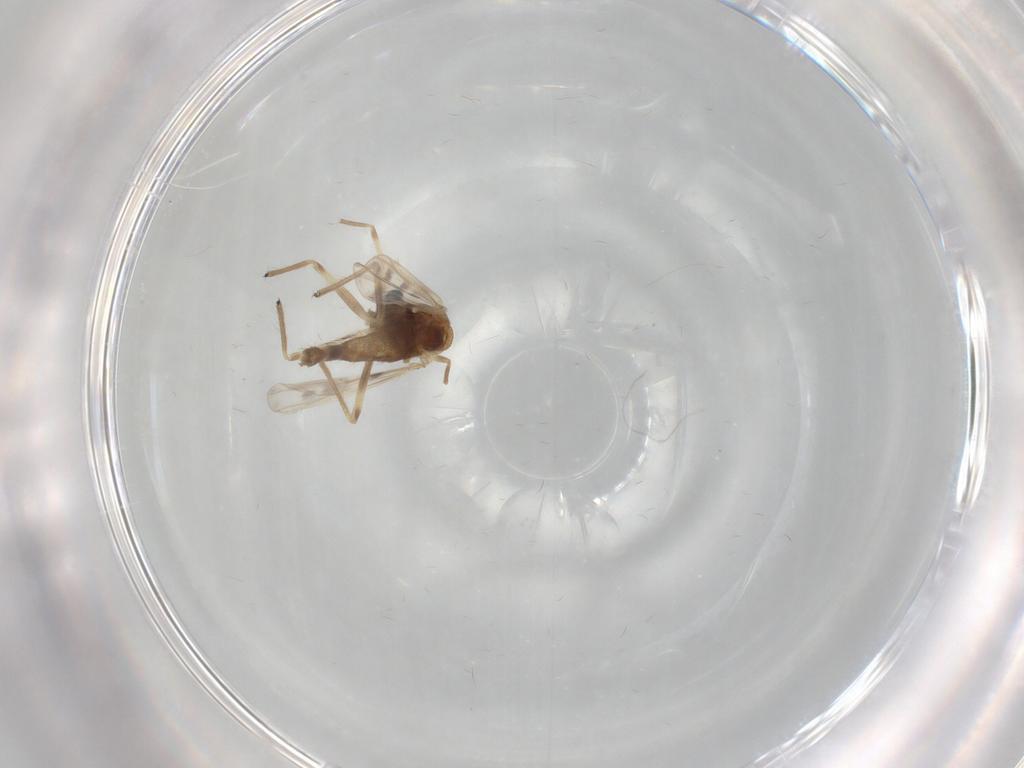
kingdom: Animalia
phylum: Arthropoda
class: Insecta
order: Diptera
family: Chironomidae
